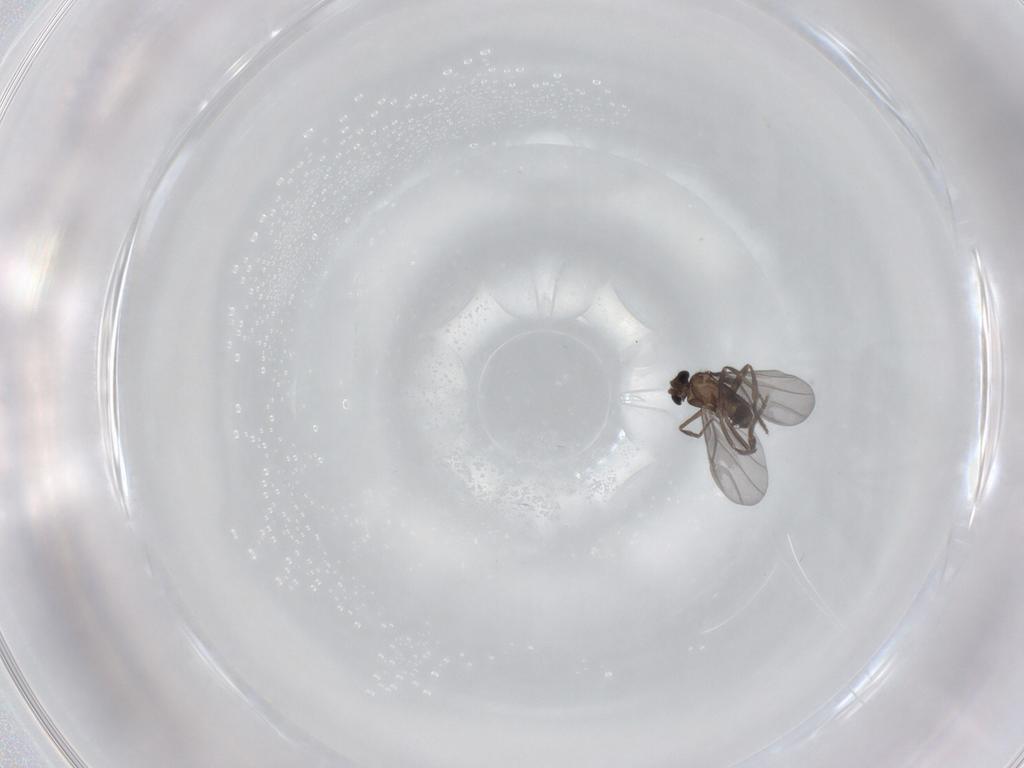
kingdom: Animalia
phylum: Arthropoda
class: Insecta
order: Diptera
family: Phoridae
